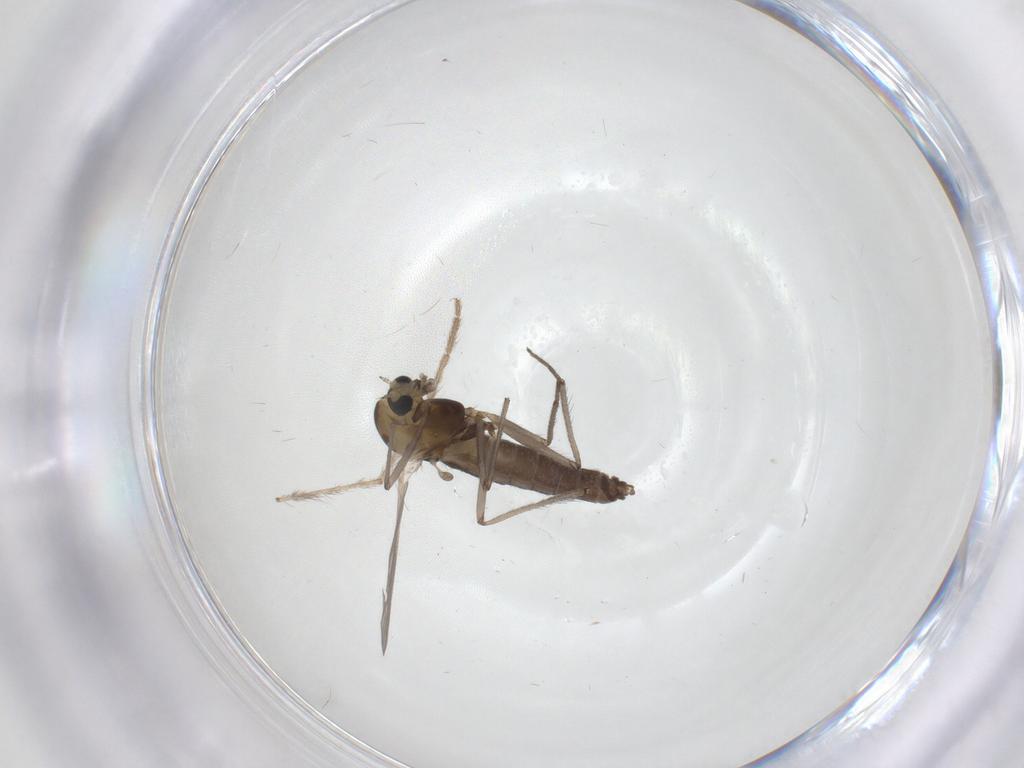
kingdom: Animalia
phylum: Arthropoda
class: Insecta
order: Diptera
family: Chironomidae
